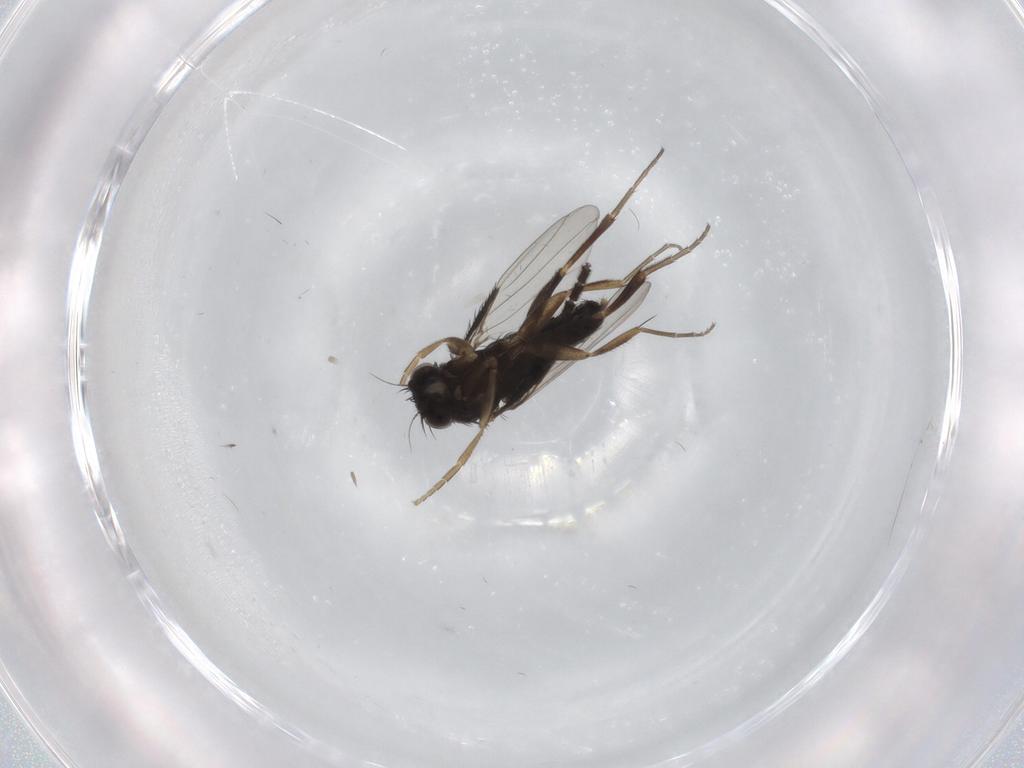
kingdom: Animalia
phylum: Arthropoda
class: Insecta
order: Diptera
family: Phoridae
